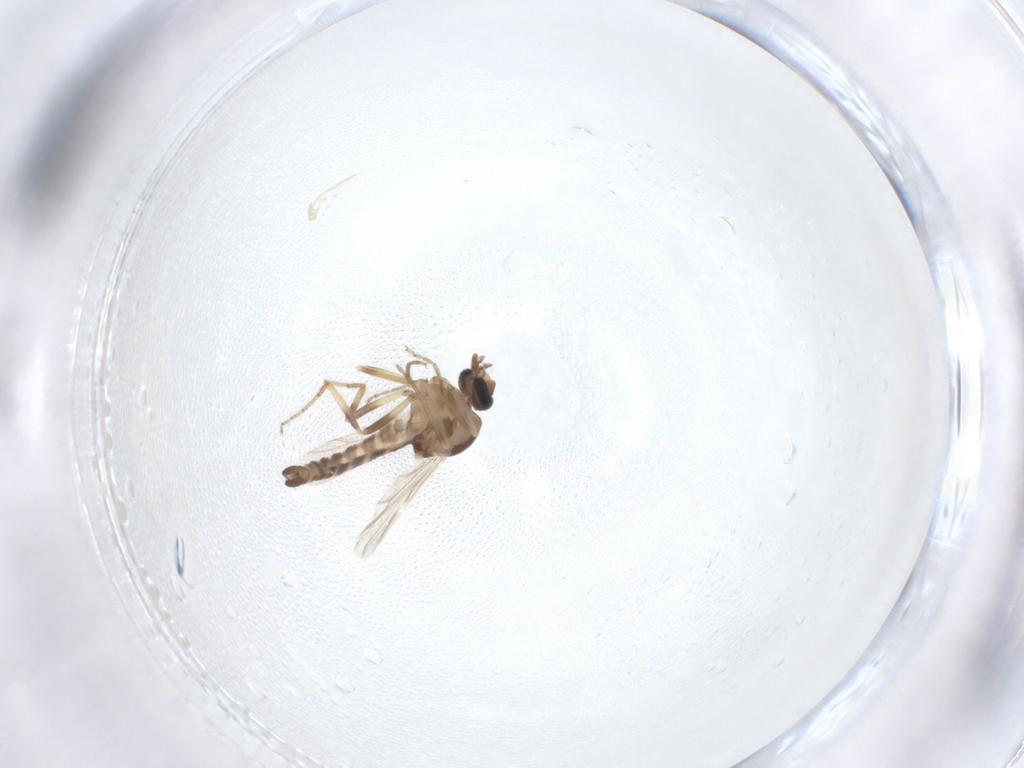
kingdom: Animalia
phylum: Arthropoda
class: Insecta
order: Diptera
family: Ceratopogonidae
